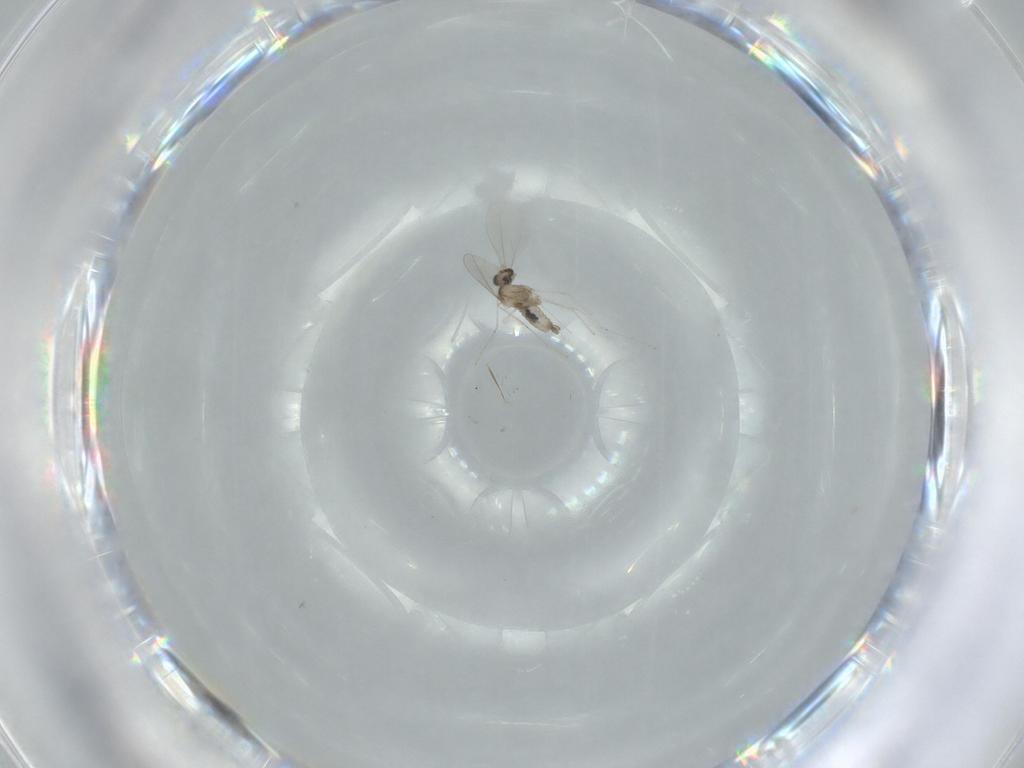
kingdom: Animalia
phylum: Arthropoda
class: Insecta
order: Diptera
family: Cecidomyiidae
